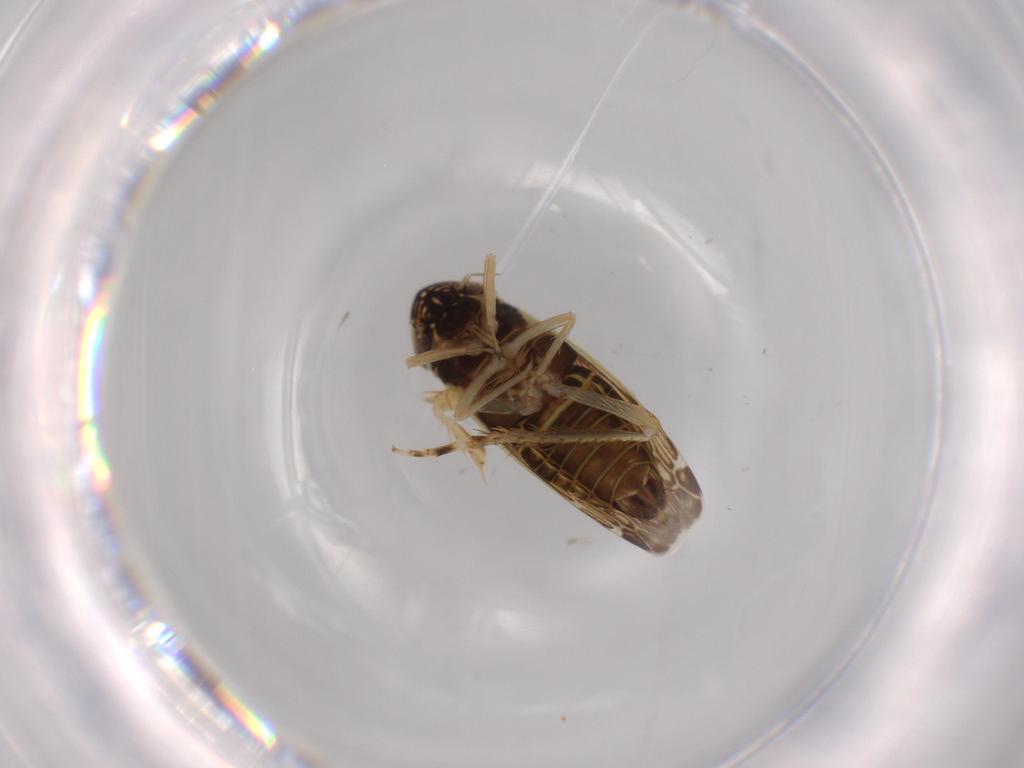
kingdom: Animalia
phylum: Arthropoda
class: Insecta
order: Hemiptera
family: Cicadellidae
